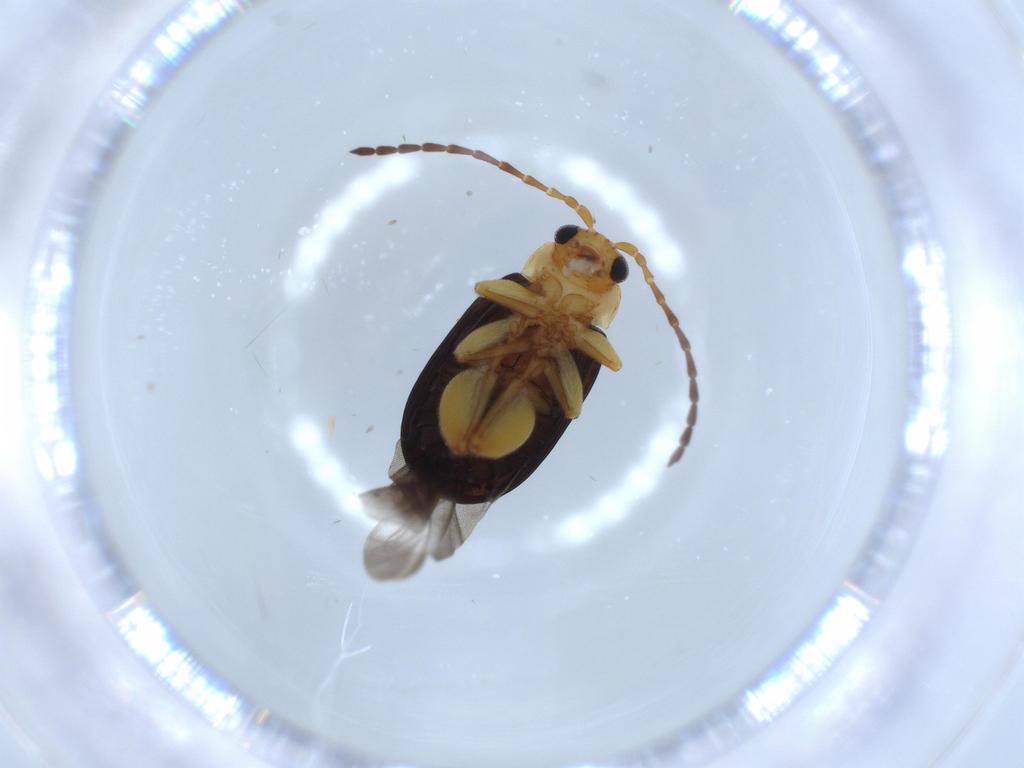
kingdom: Animalia
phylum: Arthropoda
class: Insecta
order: Coleoptera
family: Chrysomelidae
